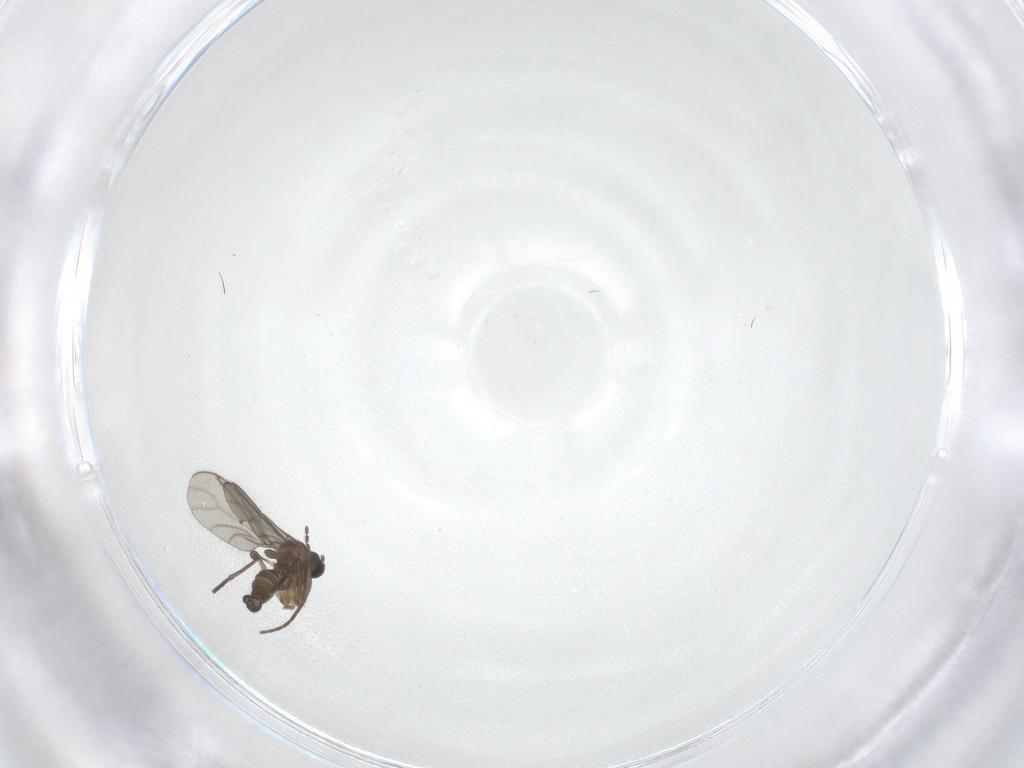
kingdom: Animalia
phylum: Arthropoda
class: Insecta
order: Diptera
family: Sciaridae
